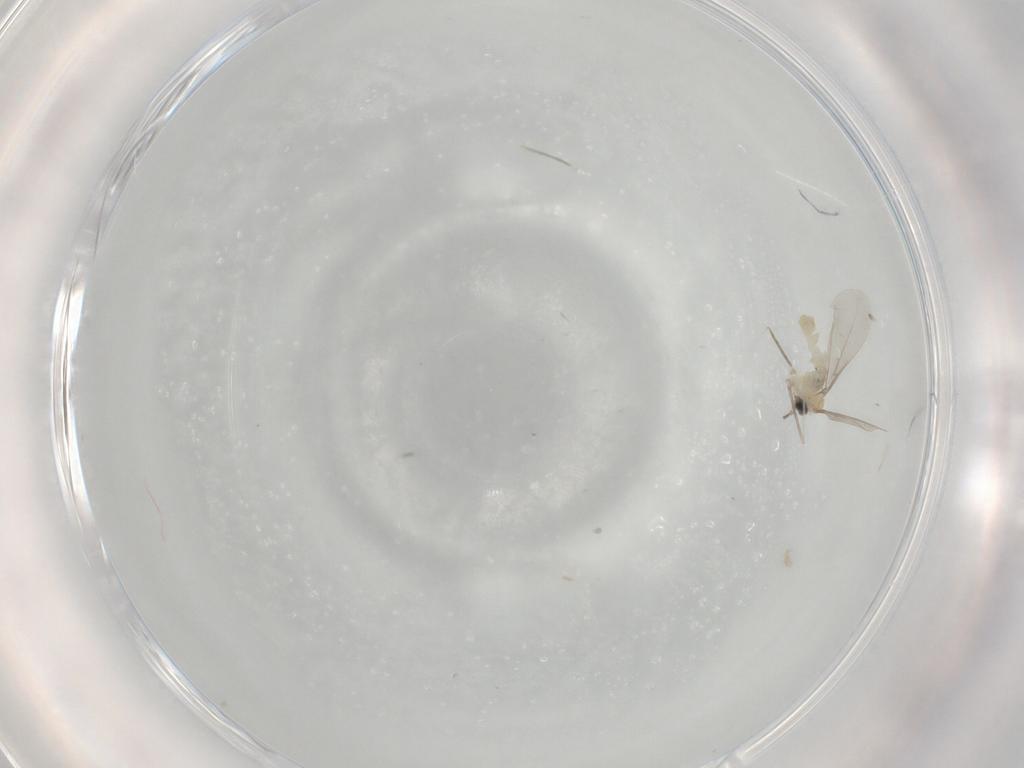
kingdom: Animalia
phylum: Arthropoda
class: Insecta
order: Diptera
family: Cecidomyiidae
